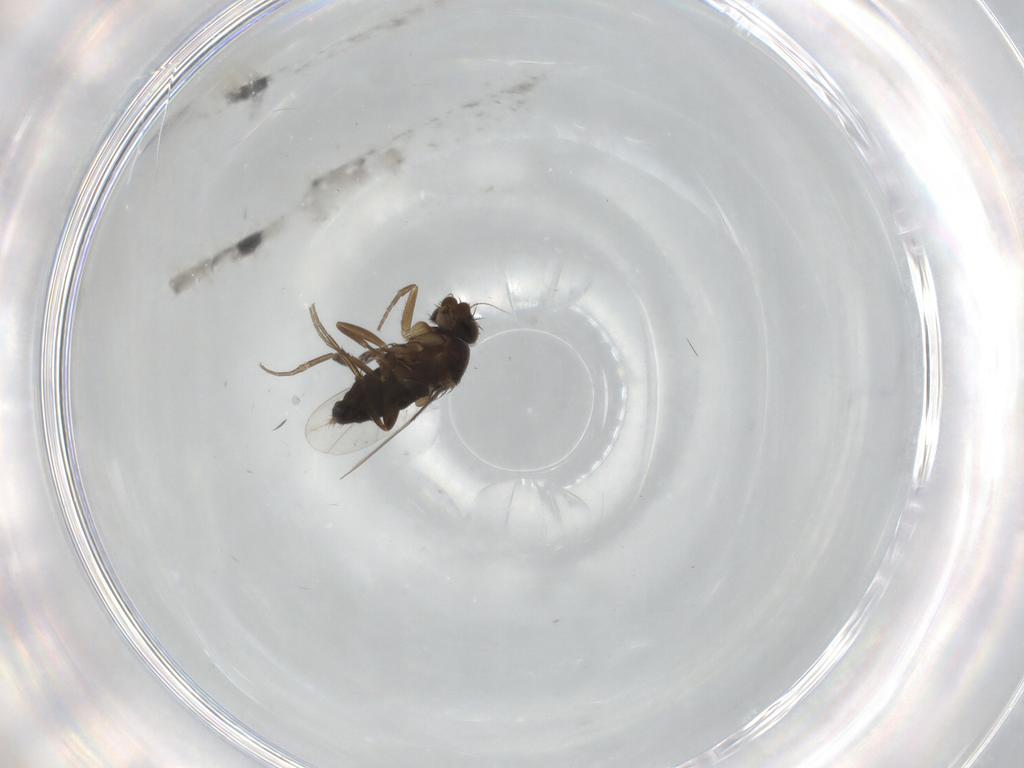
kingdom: Animalia
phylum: Arthropoda
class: Insecta
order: Diptera
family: Phoridae
